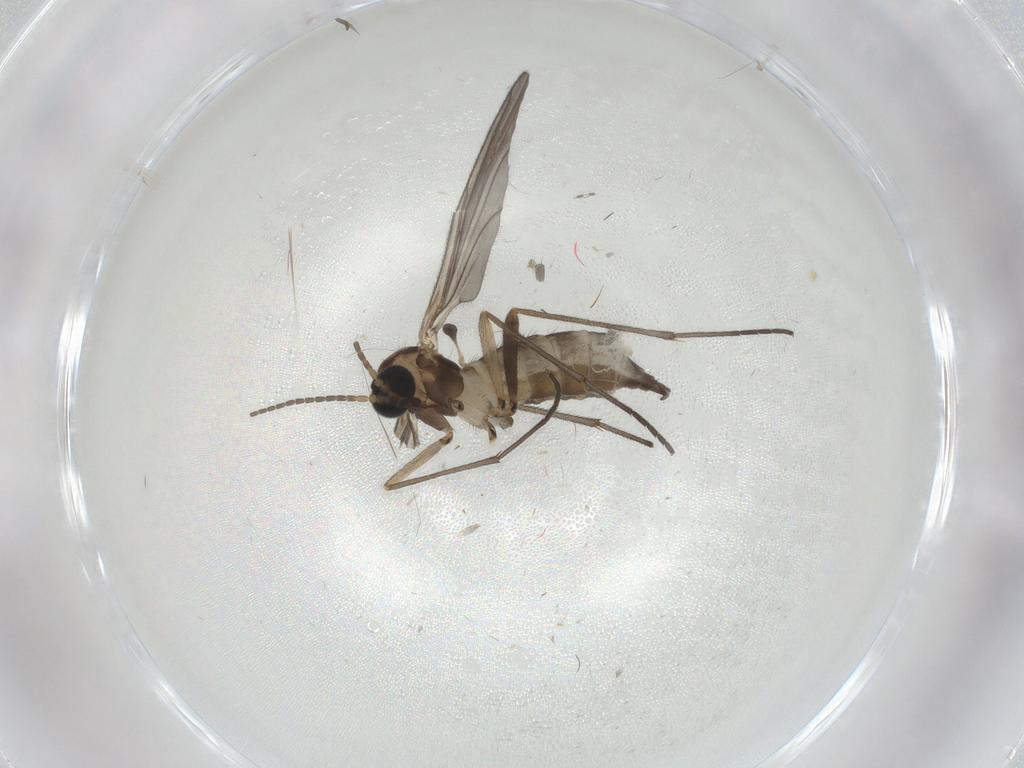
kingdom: Animalia
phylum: Arthropoda
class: Insecta
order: Diptera
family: Sciaridae
